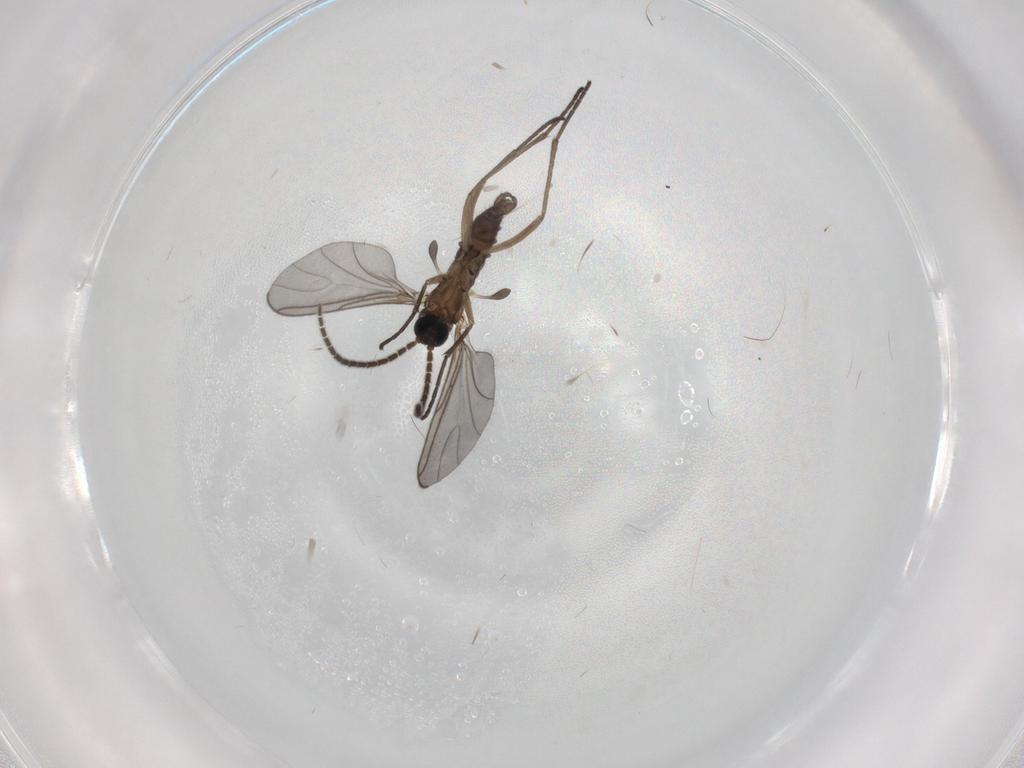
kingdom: Animalia
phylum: Arthropoda
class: Insecta
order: Diptera
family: Sciaridae
